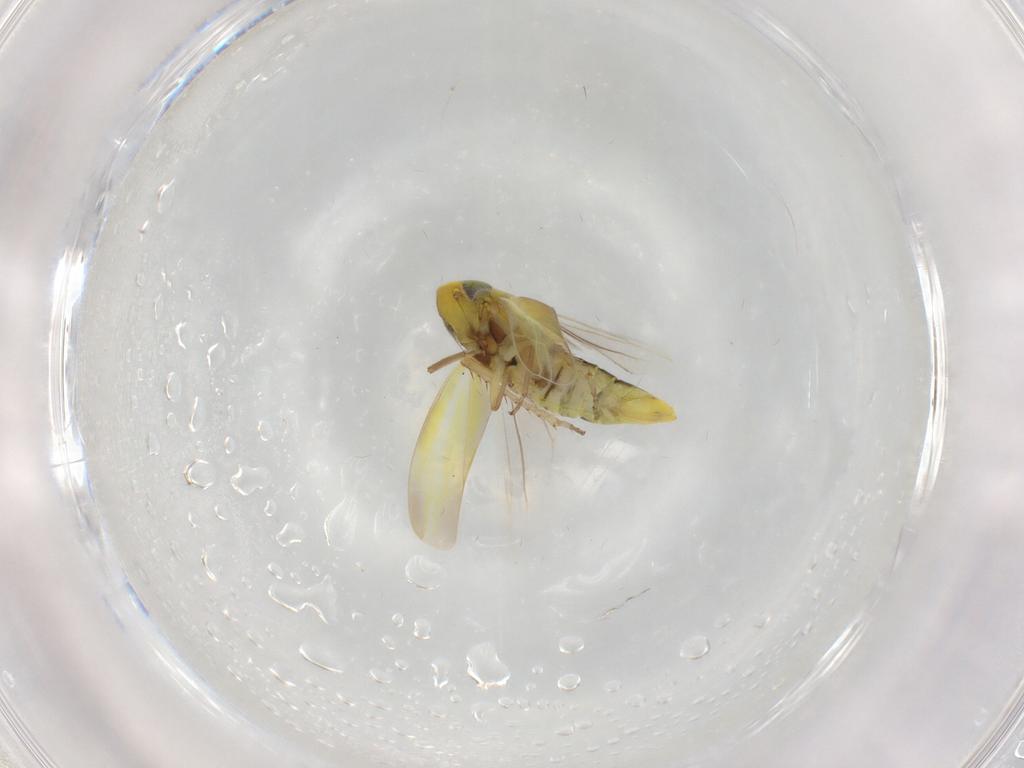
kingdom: Animalia
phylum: Arthropoda
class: Insecta
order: Hemiptera
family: Cicadellidae
